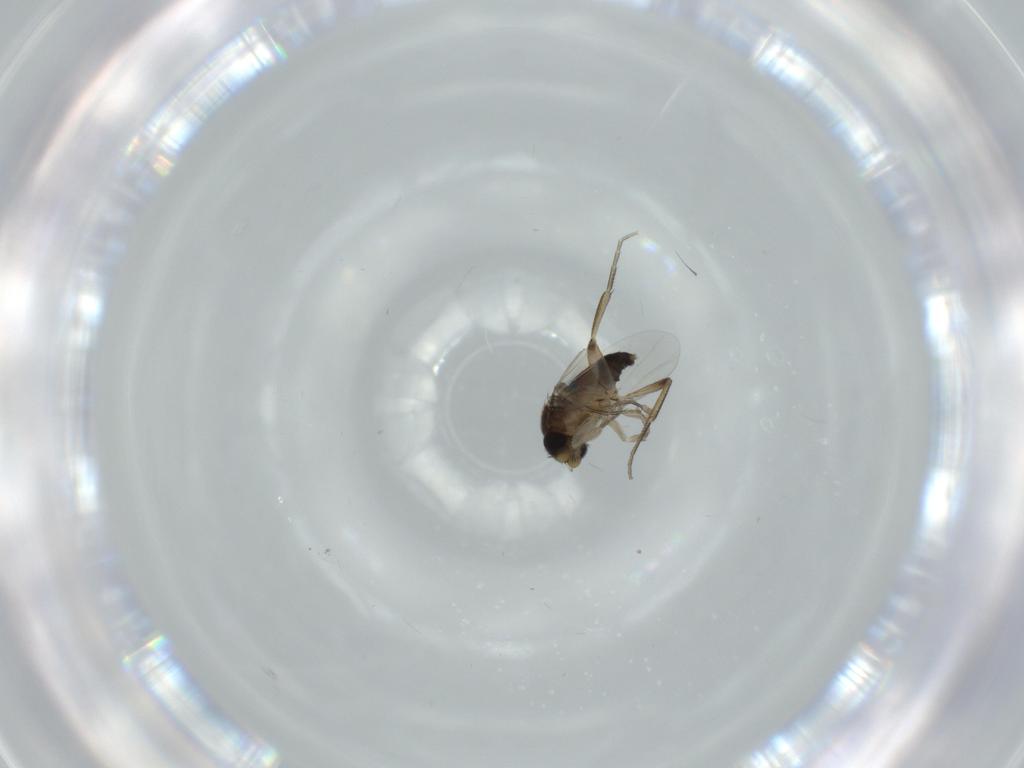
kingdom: Animalia
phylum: Arthropoda
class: Insecta
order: Diptera
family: Phoridae
